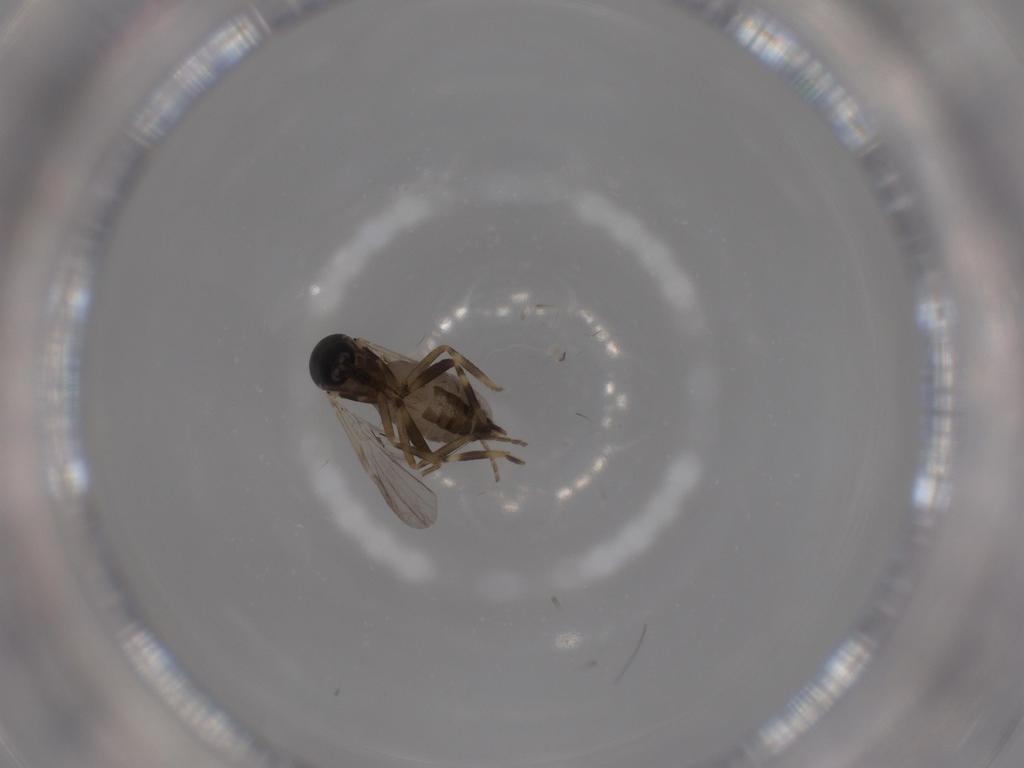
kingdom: Animalia
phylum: Arthropoda
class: Insecta
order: Diptera
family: Ceratopogonidae
